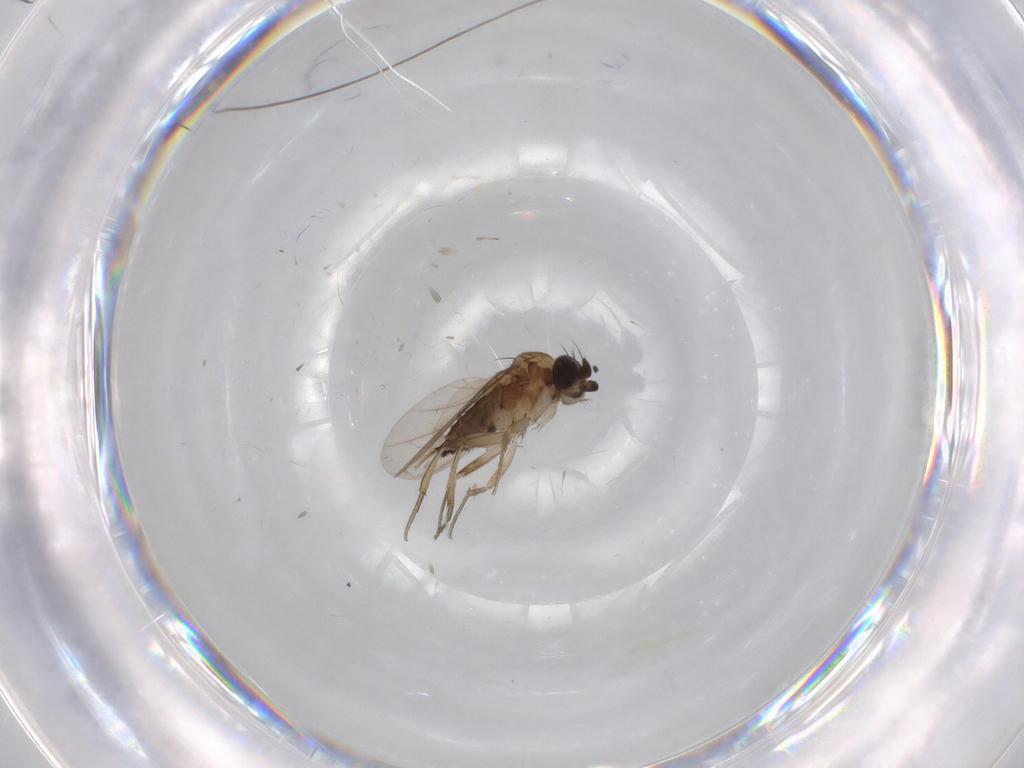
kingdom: Animalia
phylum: Arthropoda
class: Insecta
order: Diptera
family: Phoridae
